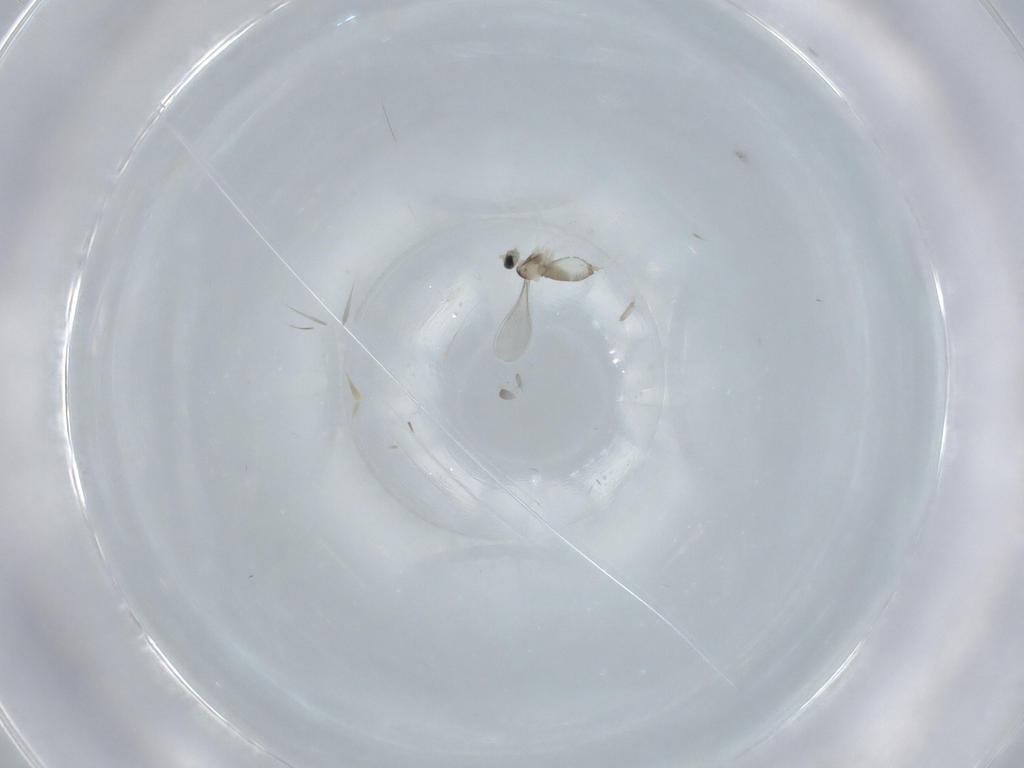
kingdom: Animalia
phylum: Arthropoda
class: Insecta
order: Diptera
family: Cecidomyiidae
